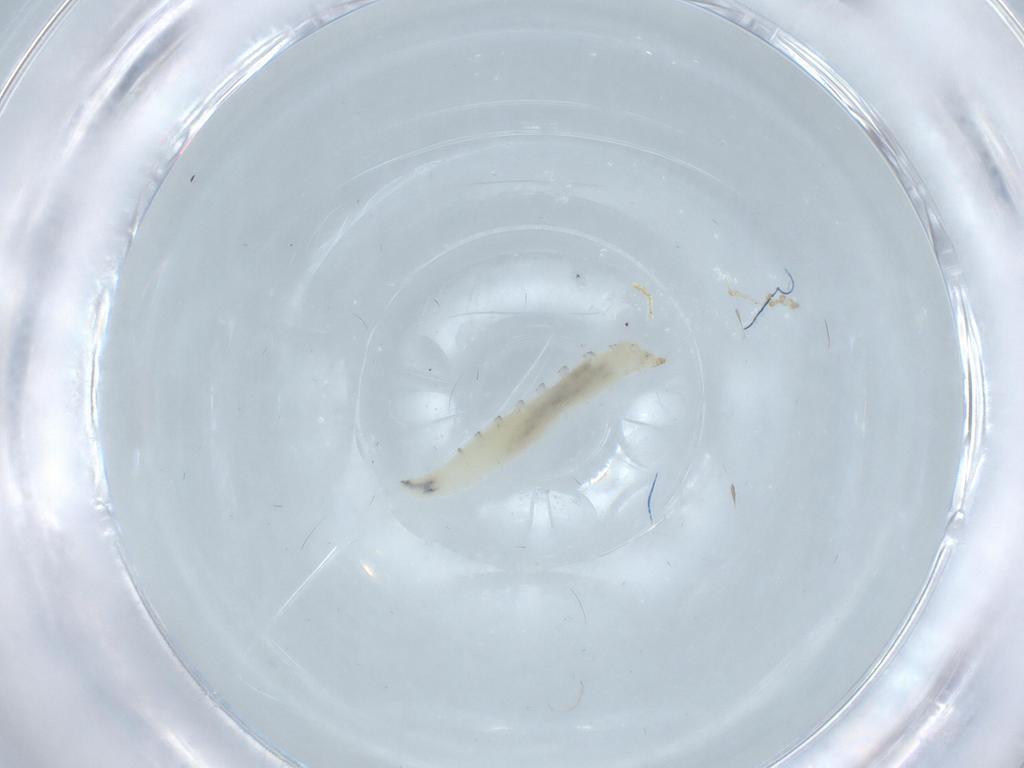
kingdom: Animalia
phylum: Arthropoda
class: Insecta
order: Diptera
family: Drosophilidae
